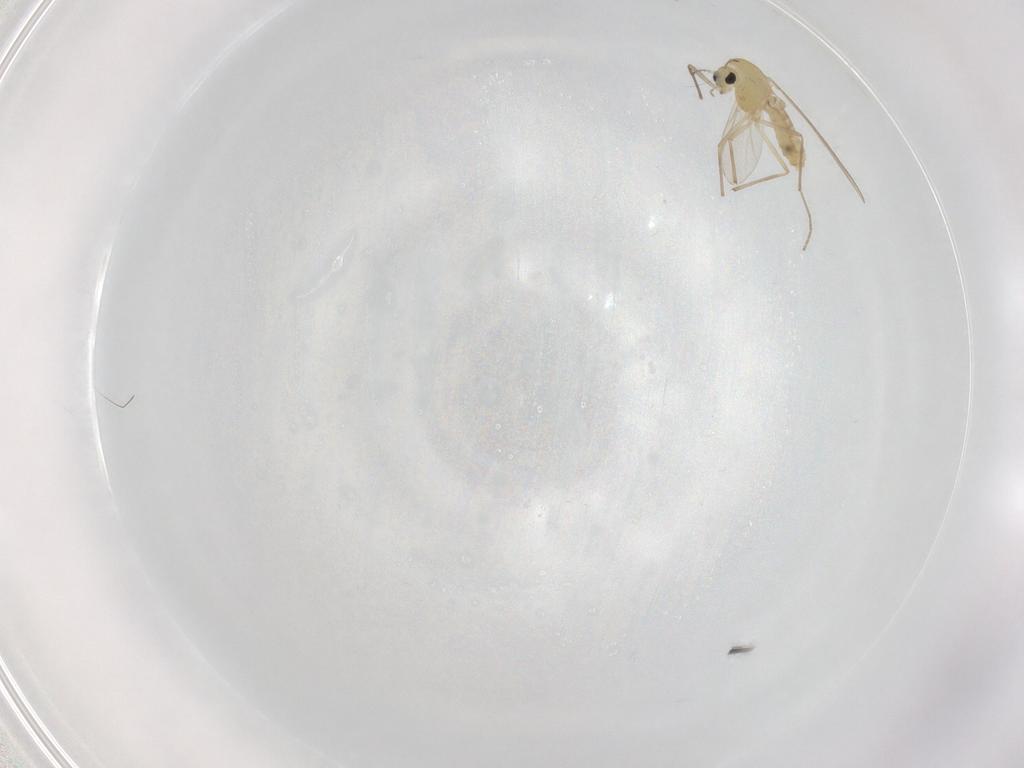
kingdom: Animalia
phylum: Arthropoda
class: Insecta
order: Diptera
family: Chironomidae
